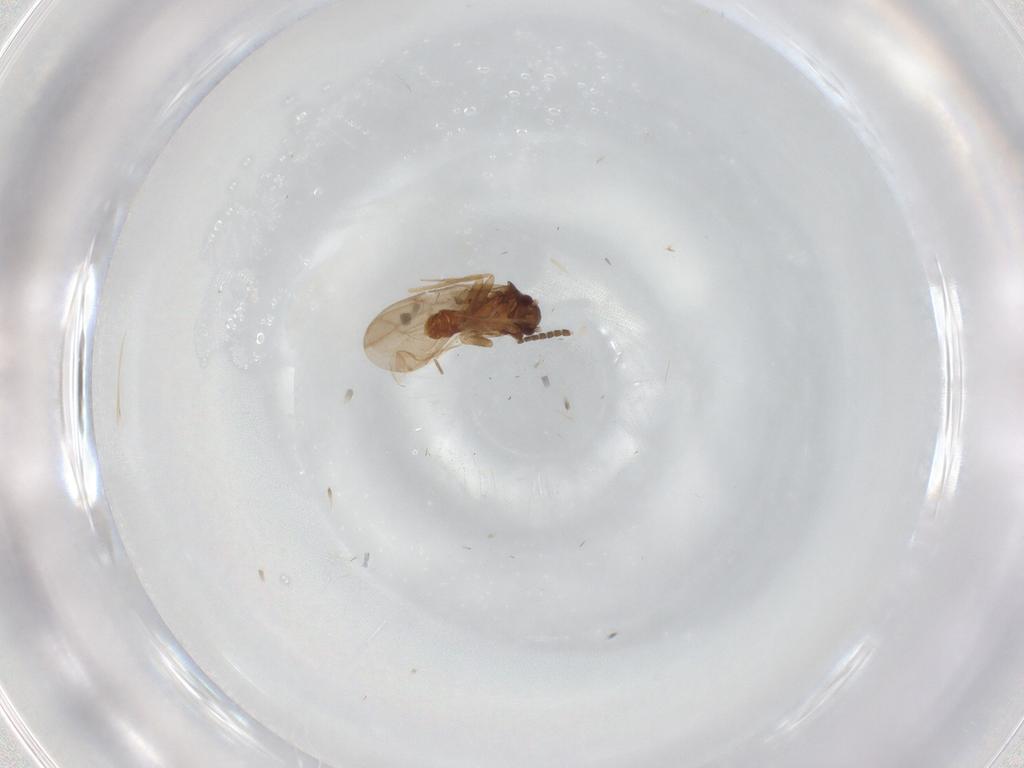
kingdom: Animalia
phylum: Arthropoda
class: Insecta
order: Hemiptera
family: Ceratocombidae
